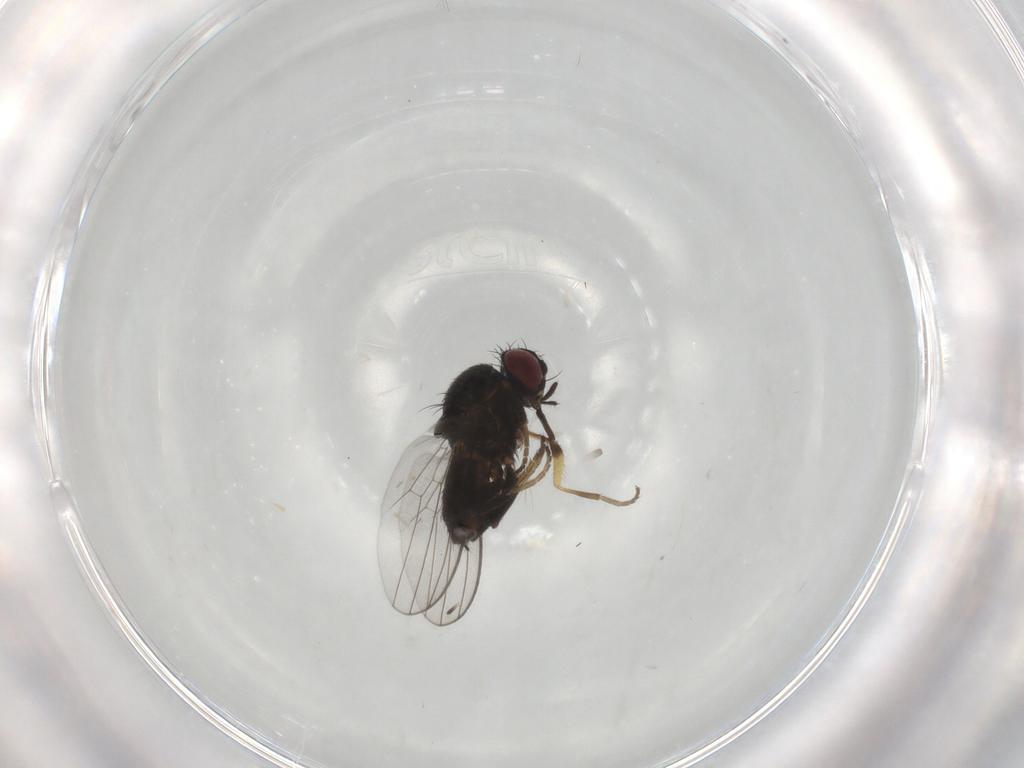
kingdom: Animalia
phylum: Arthropoda
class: Insecta
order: Diptera
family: Milichiidae
